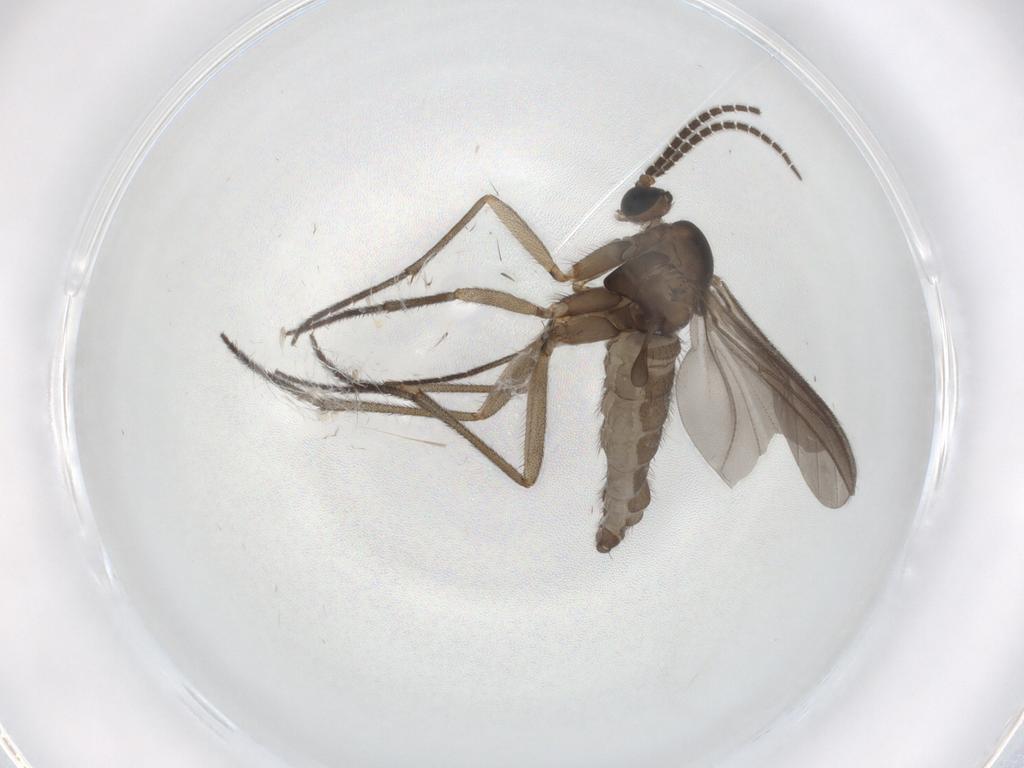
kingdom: Animalia
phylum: Arthropoda
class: Insecta
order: Diptera
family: Sciaridae
